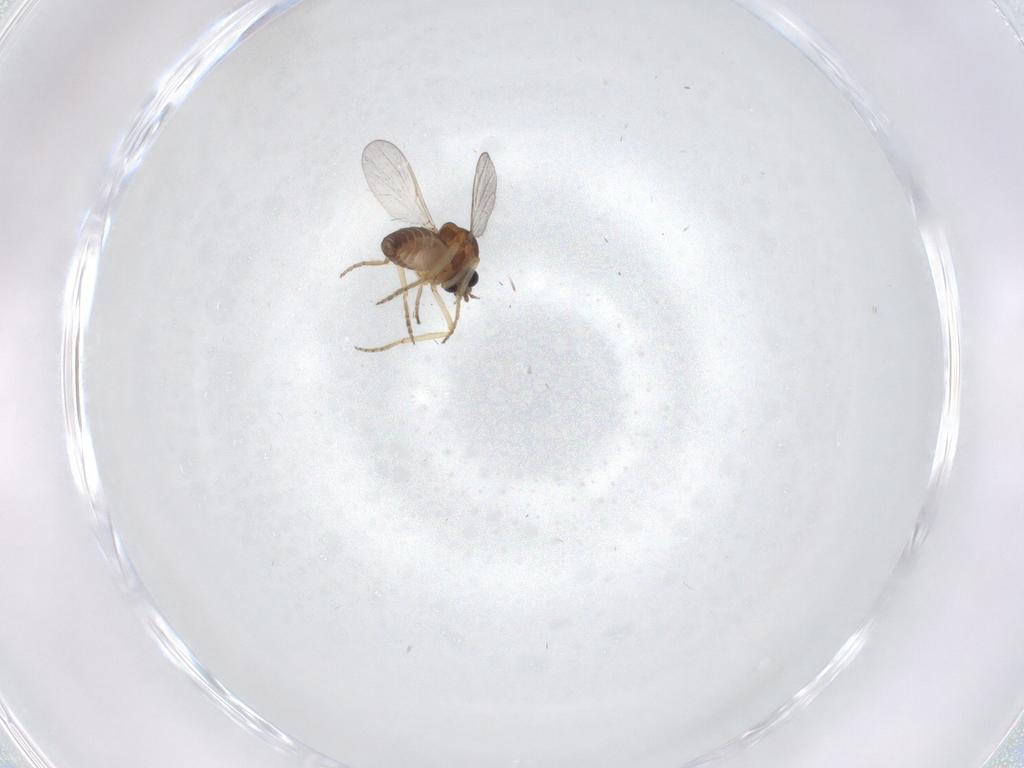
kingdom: Animalia
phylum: Arthropoda
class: Insecta
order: Diptera
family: Ceratopogonidae
